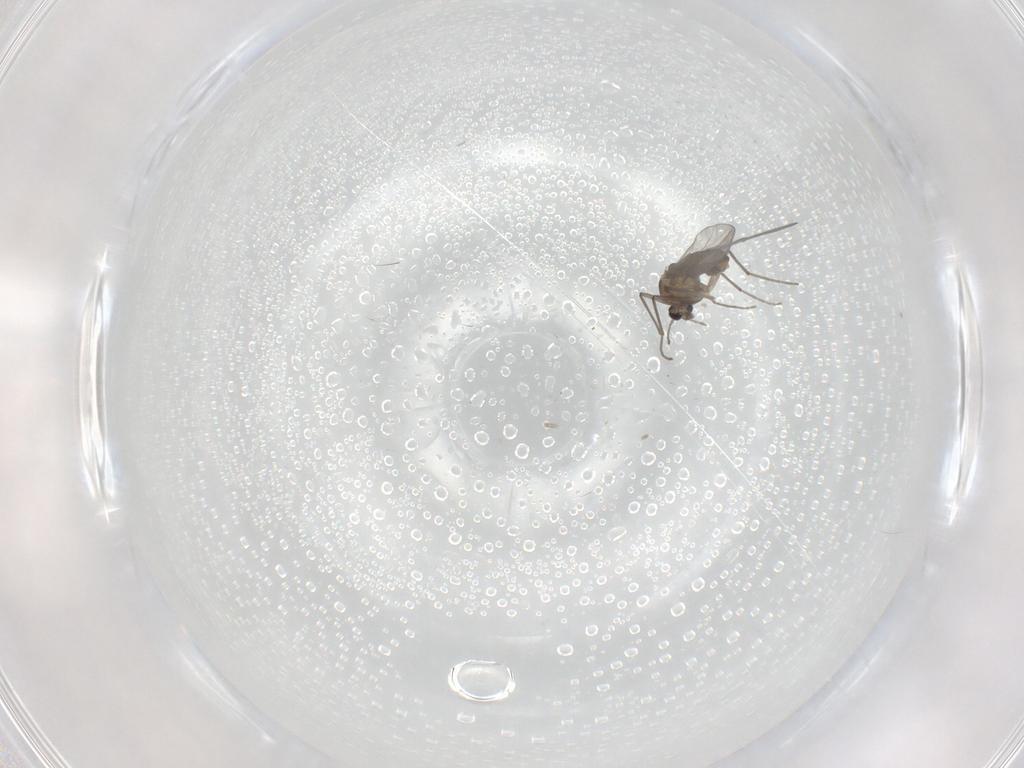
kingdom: Animalia
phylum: Arthropoda
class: Insecta
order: Diptera
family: Chironomidae
